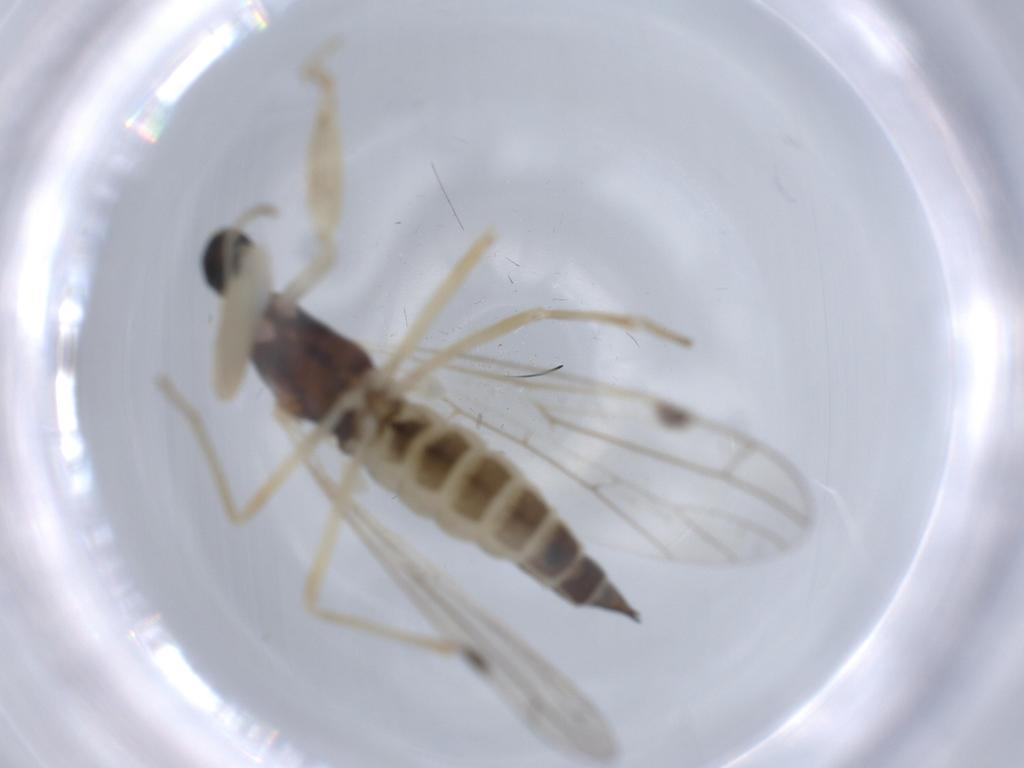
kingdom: Animalia
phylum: Arthropoda
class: Insecta
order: Diptera
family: Empididae
